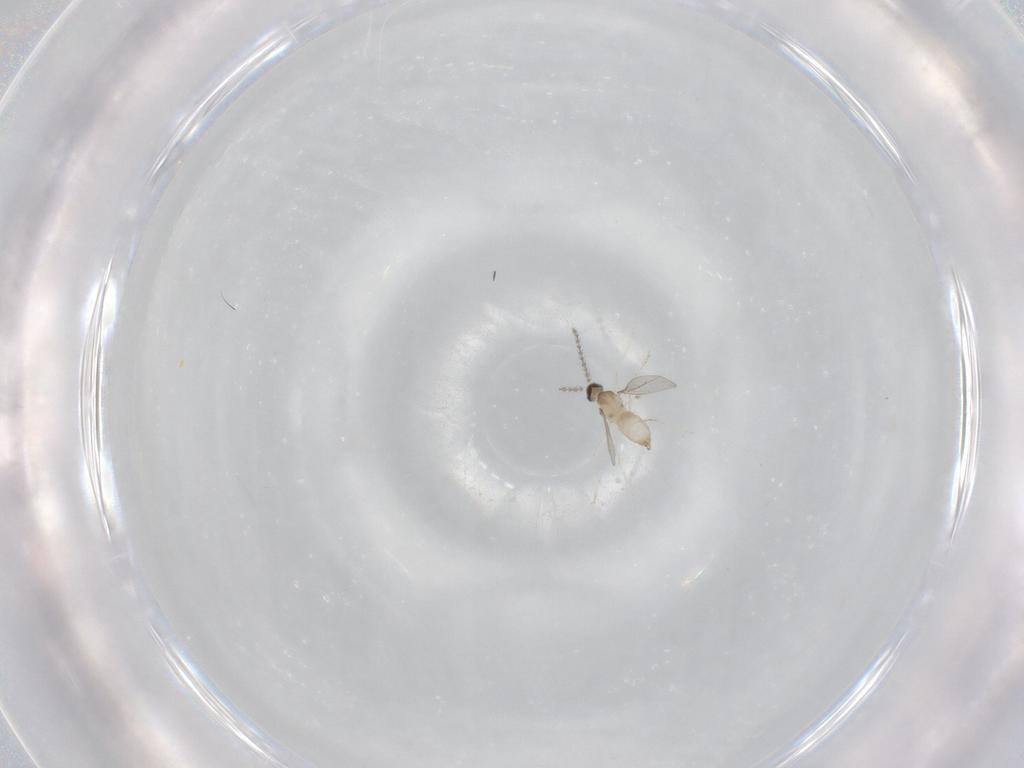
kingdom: Animalia
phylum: Arthropoda
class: Insecta
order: Diptera
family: Cecidomyiidae
